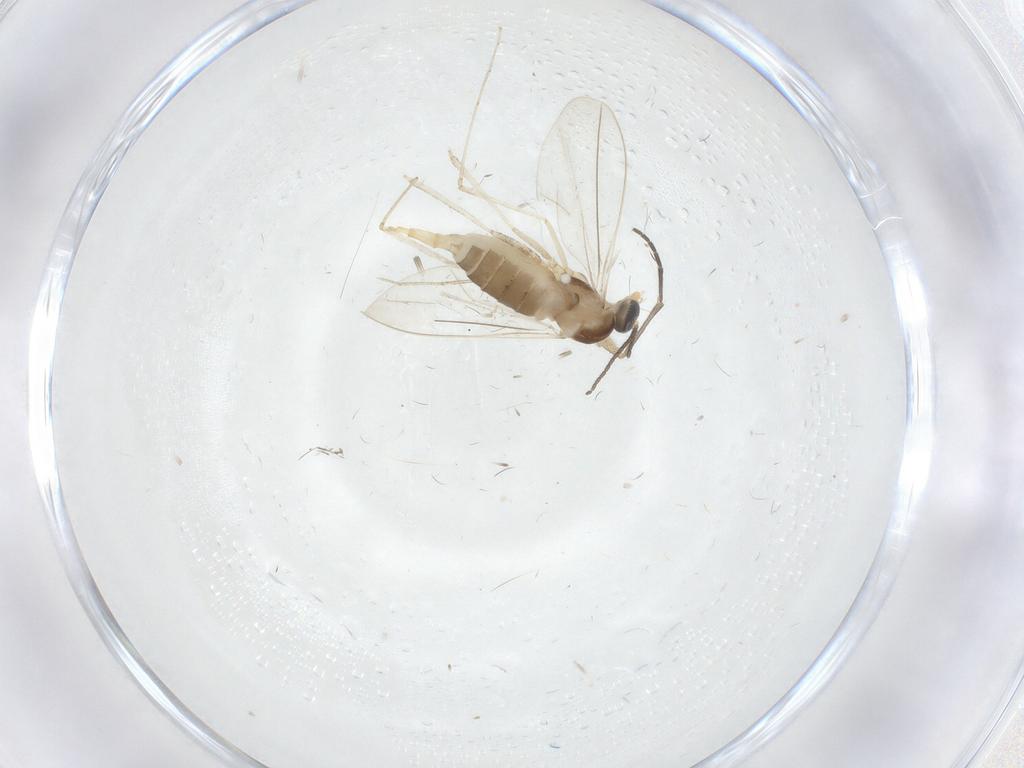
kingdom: Animalia
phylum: Arthropoda
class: Insecta
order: Diptera
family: Cecidomyiidae
